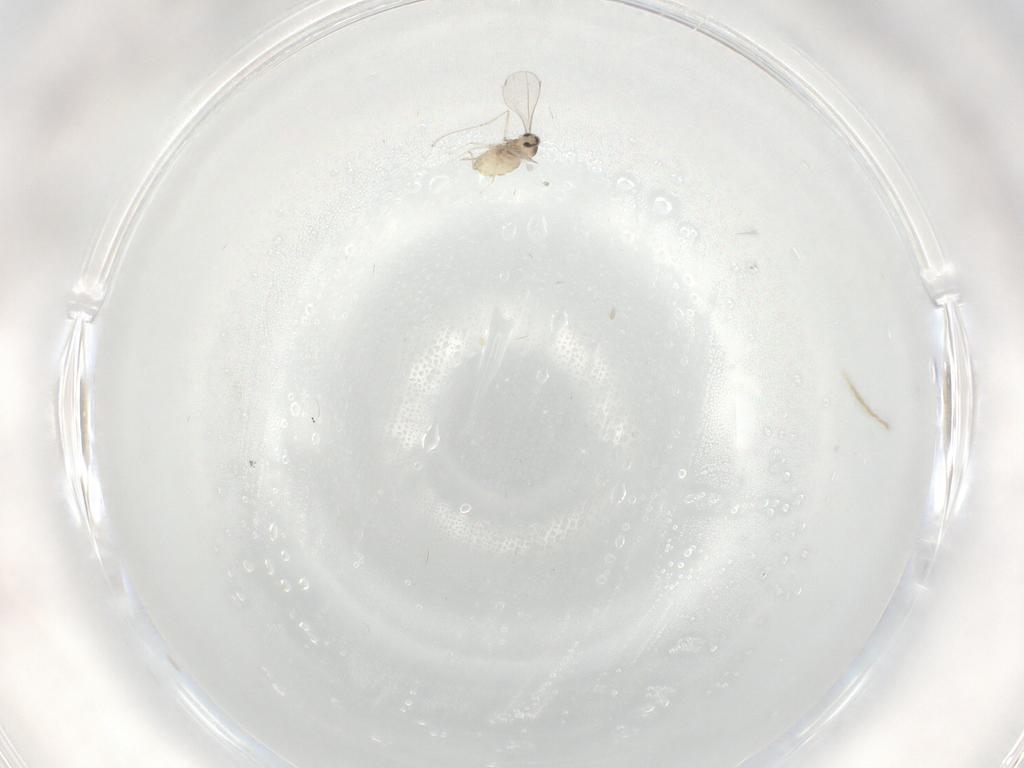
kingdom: Animalia
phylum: Arthropoda
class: Insecta
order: Diptera
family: Cecidomyiidae
